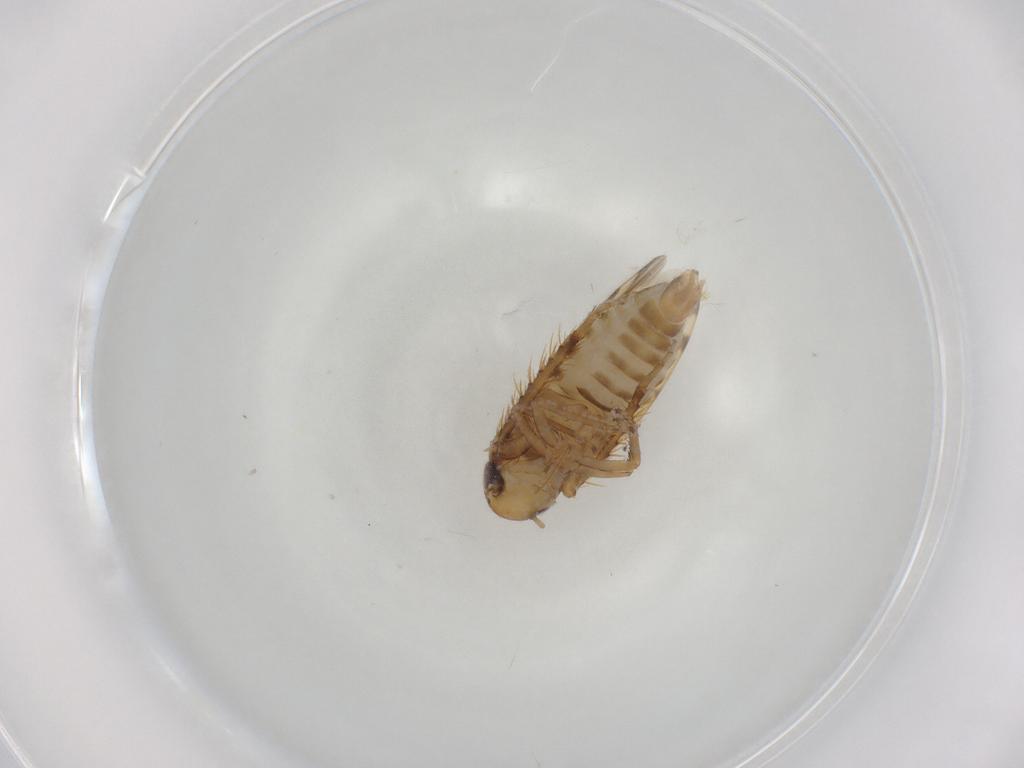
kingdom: Animalia
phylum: Arthropoda
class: Insecta
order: Hemiptera
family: Cicadellidae
